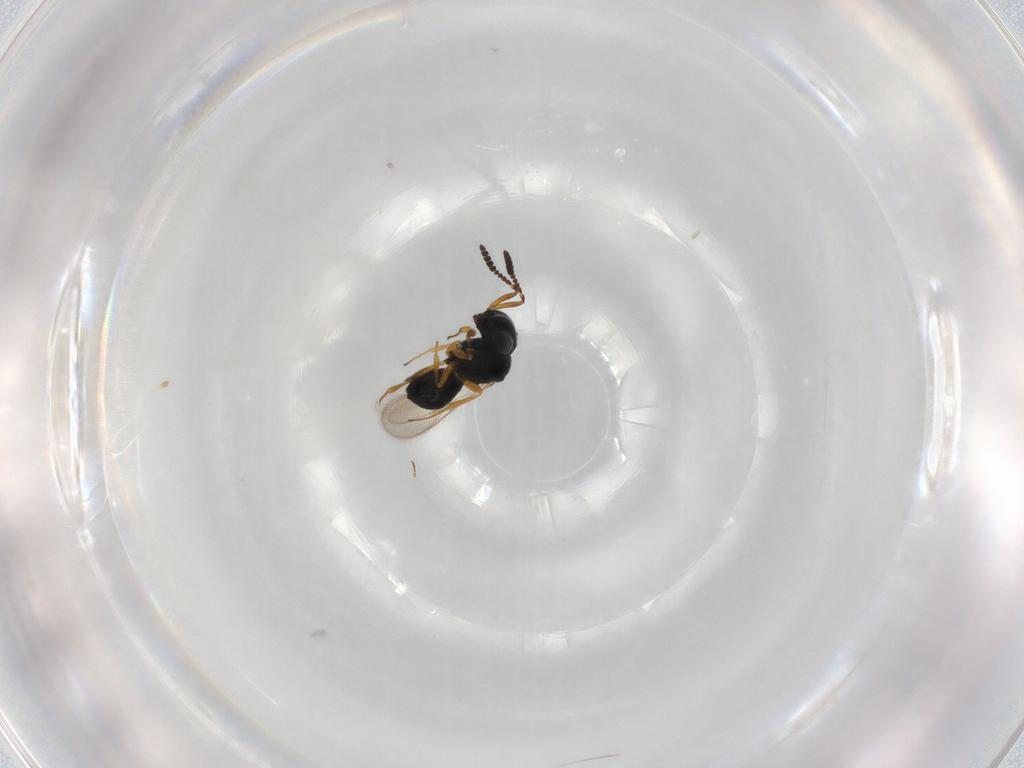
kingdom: Animalia
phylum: Arthropoda
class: Insecta
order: Hymenoptera
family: Scelionidae
